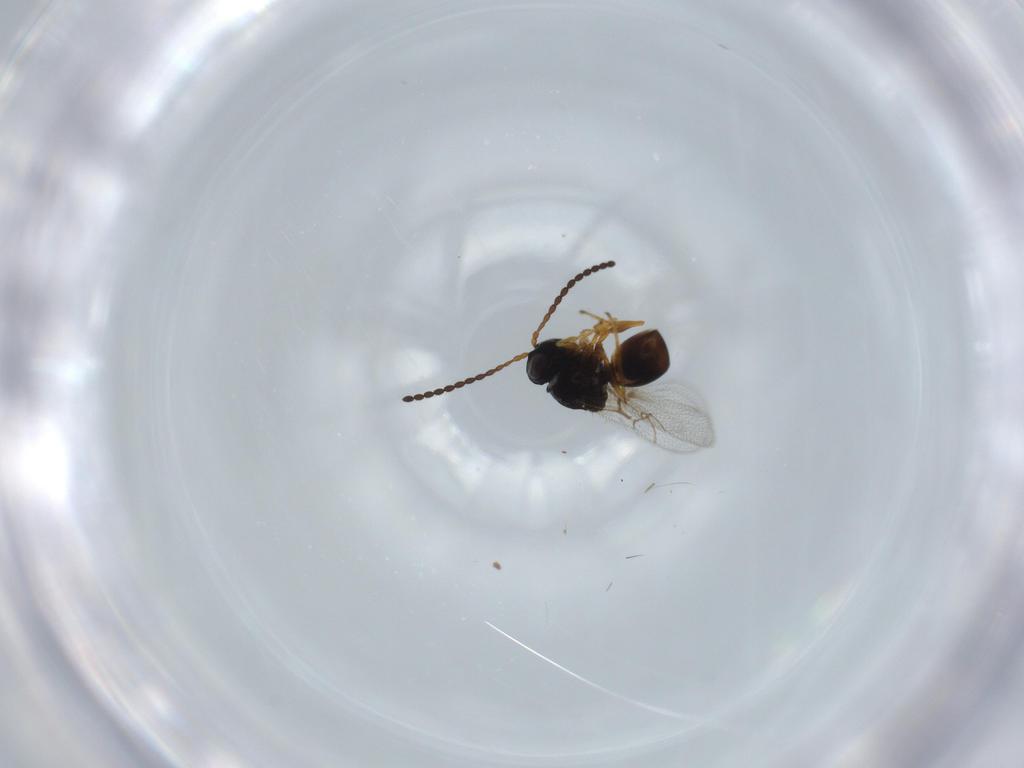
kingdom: Animalia
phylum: Arthropoda
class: Insecta
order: Hymenoptera
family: Figitidae
